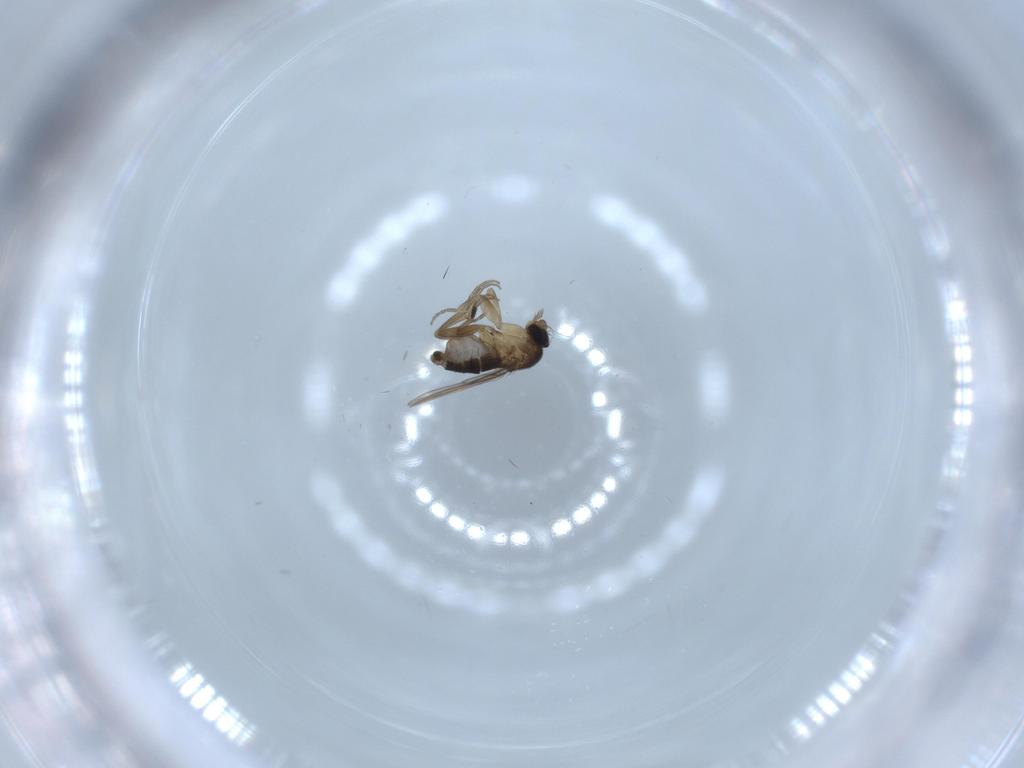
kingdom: Animalia
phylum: Arthropoda
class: Insecta
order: Diptera
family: Phoridae
